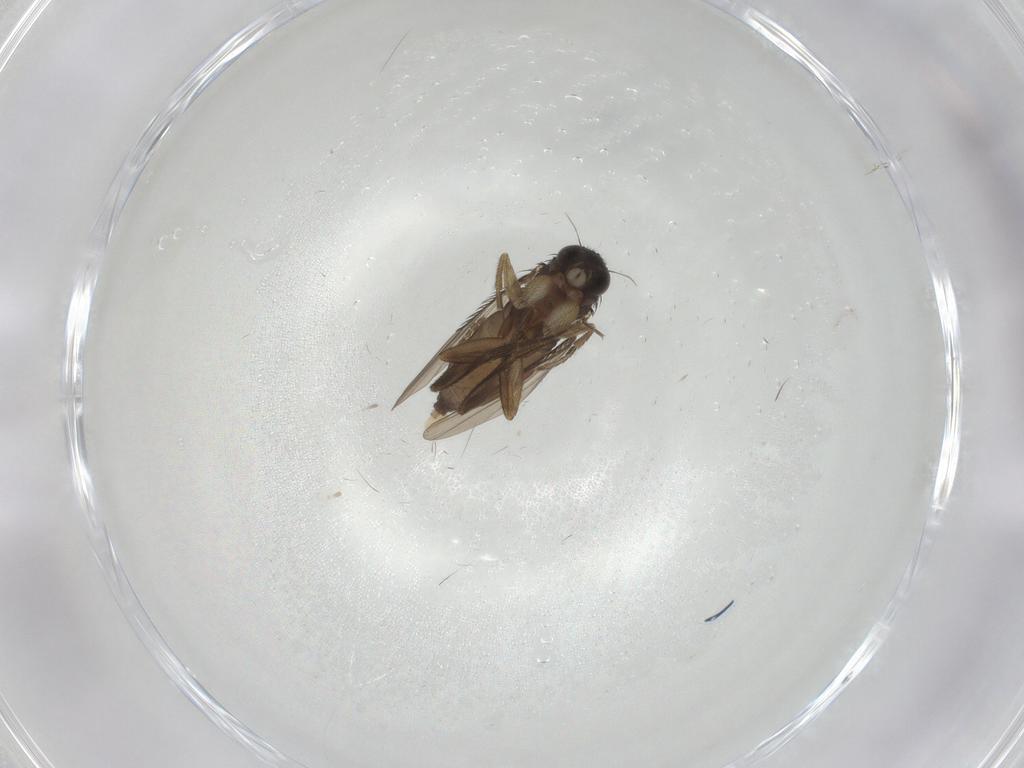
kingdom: Animalia
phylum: Arthropoda
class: Insecta
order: Diptera
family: Phoridae
